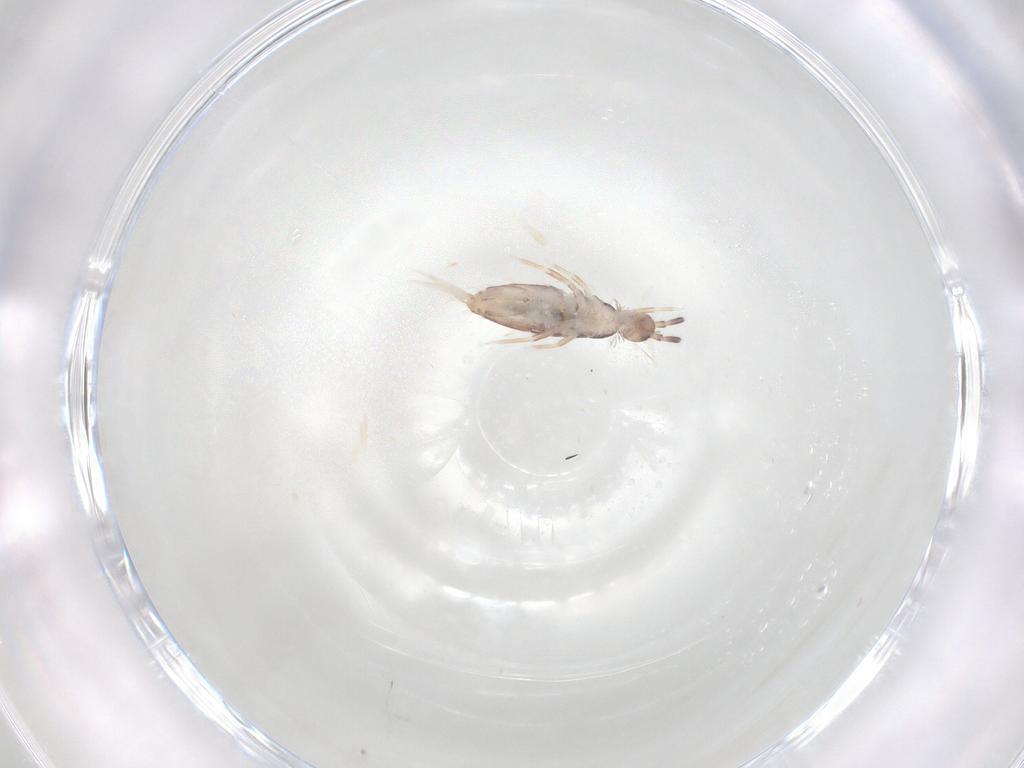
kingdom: Animalia
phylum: Arthropoda
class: Collembola
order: Poduromorpha
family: Hypogastruridae
